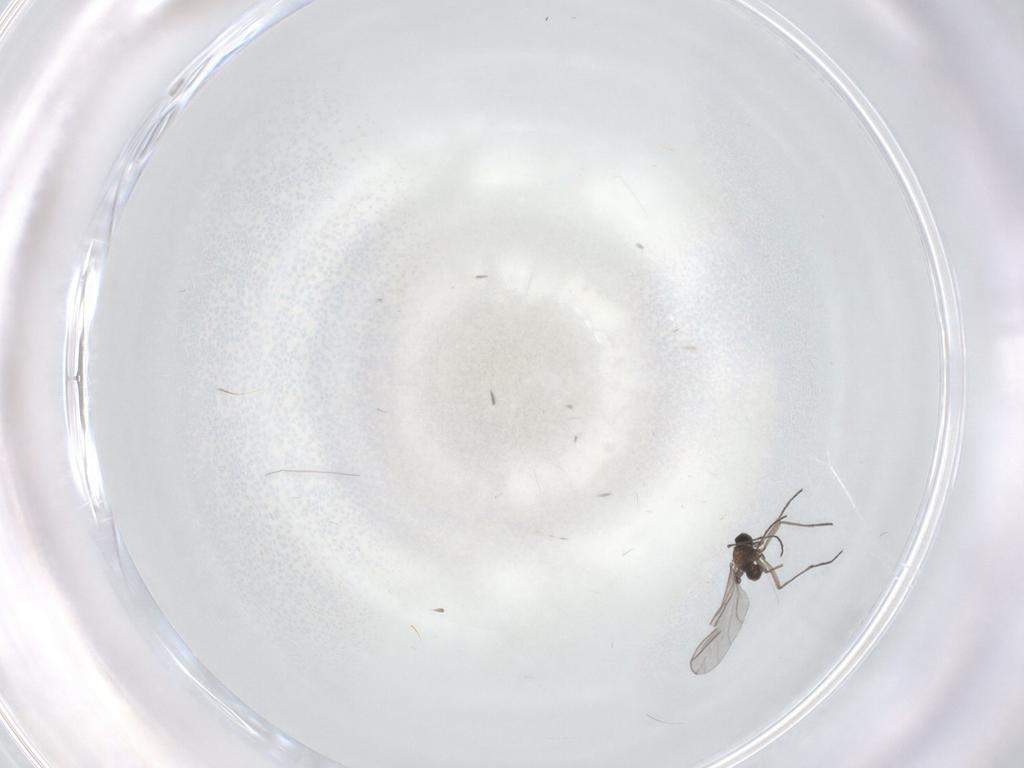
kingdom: Animalia
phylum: Arthropoda
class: Insecta
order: Diptera
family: Sciaridae
